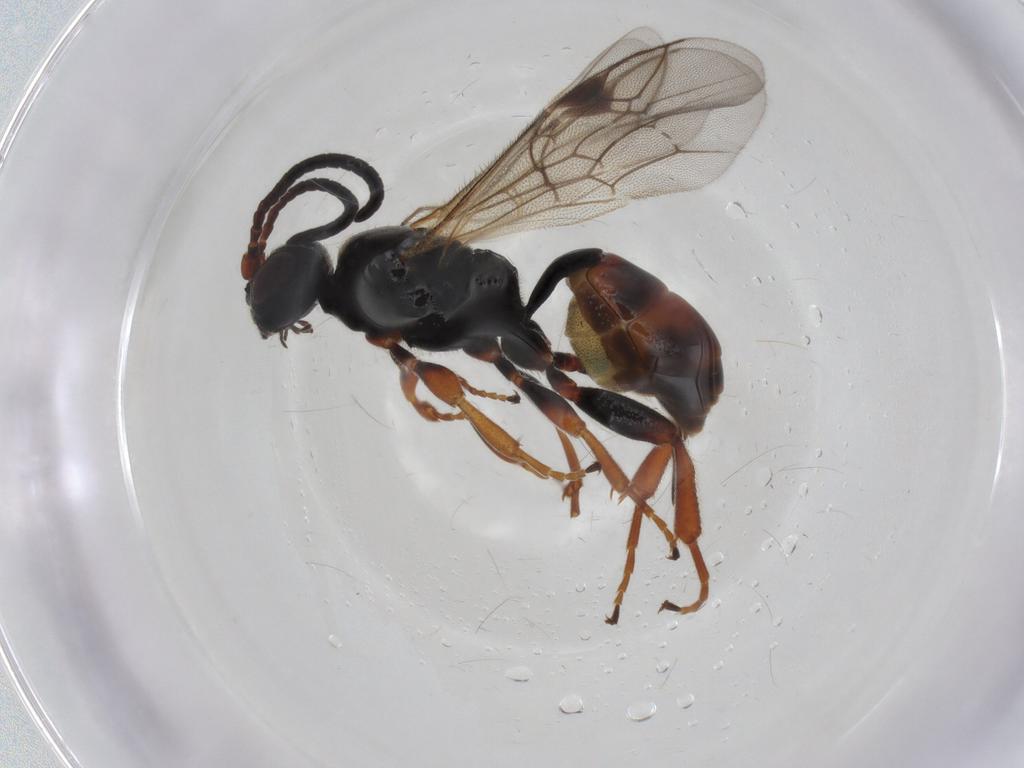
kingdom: Animalia
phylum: Arthropoda
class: Insecta
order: Hymenoptera
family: Ichneumonidae
